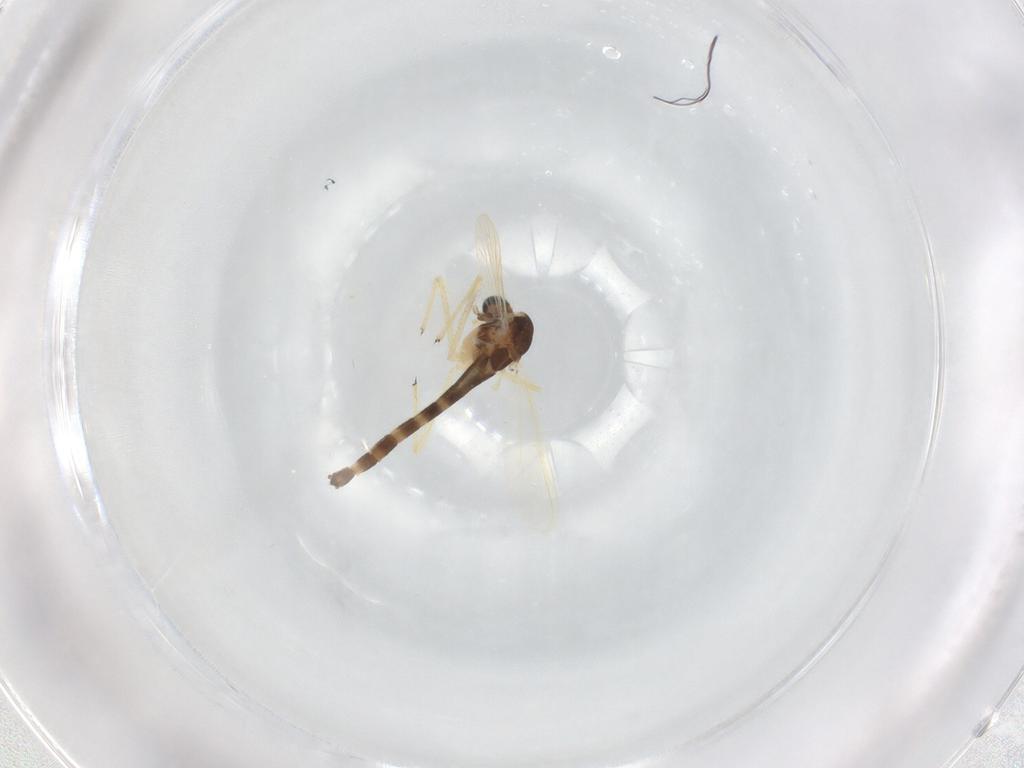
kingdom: Animalia
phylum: Arthropoda
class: Insecta
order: Diptera
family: Chironomidae
